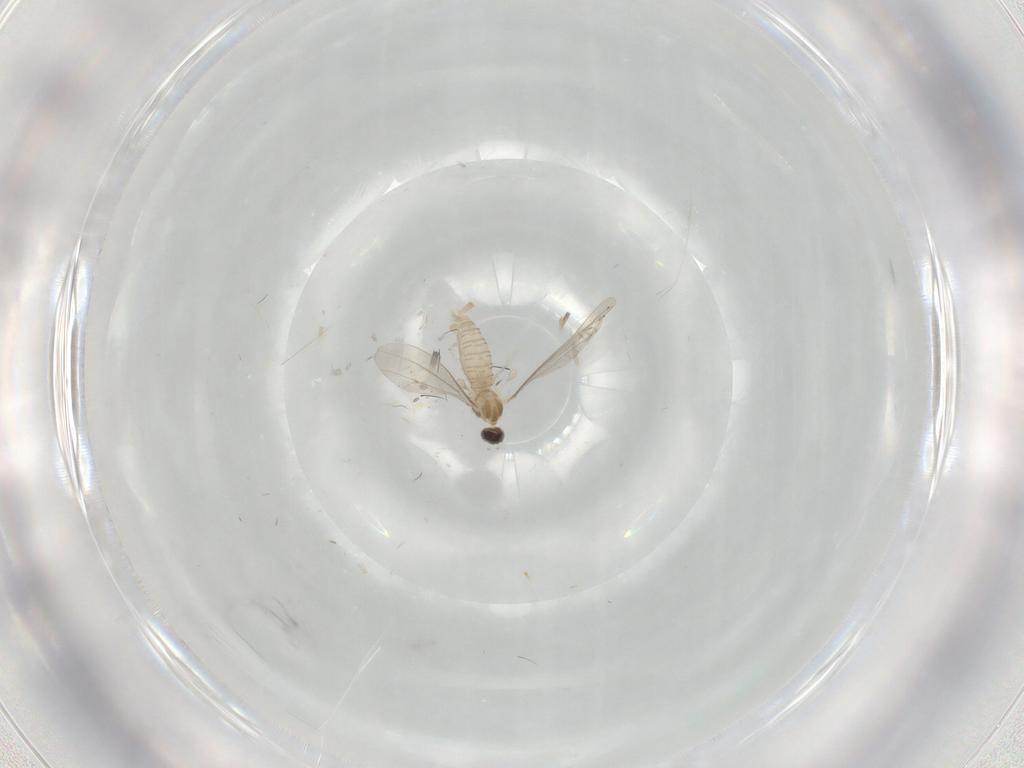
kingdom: Animalia
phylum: Arthropoda
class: Insecta
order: Diptera
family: Cecidomyiidae
